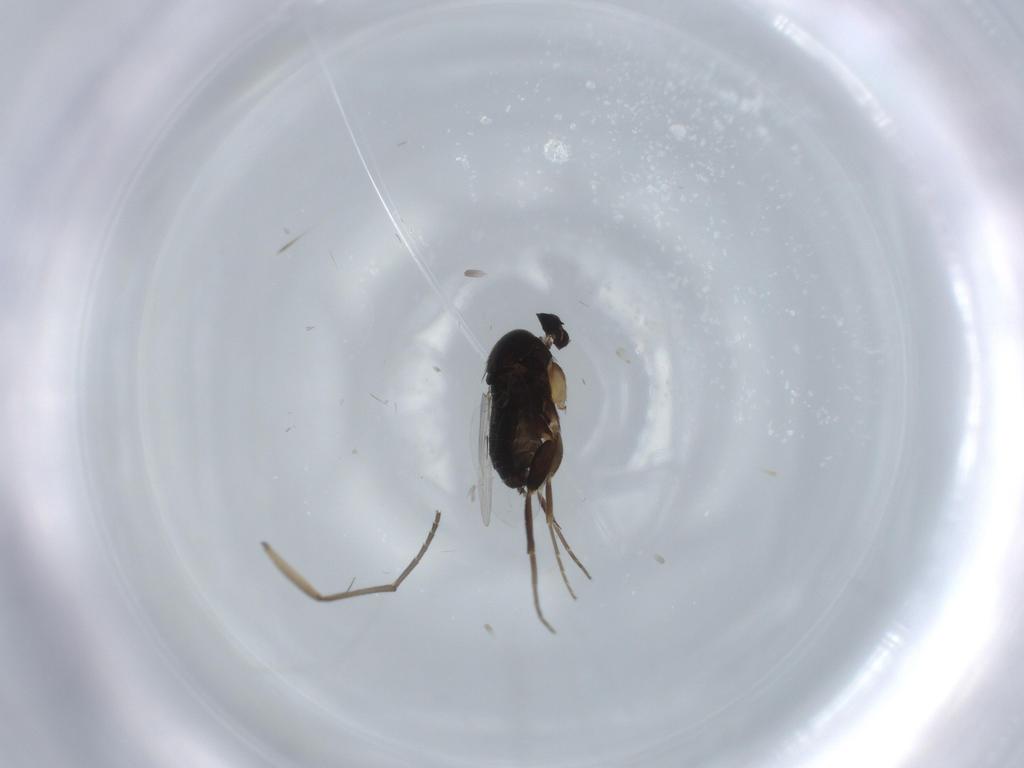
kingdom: Animalia
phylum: Arthropoda
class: Insecta
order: Diptera
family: Phoridae
